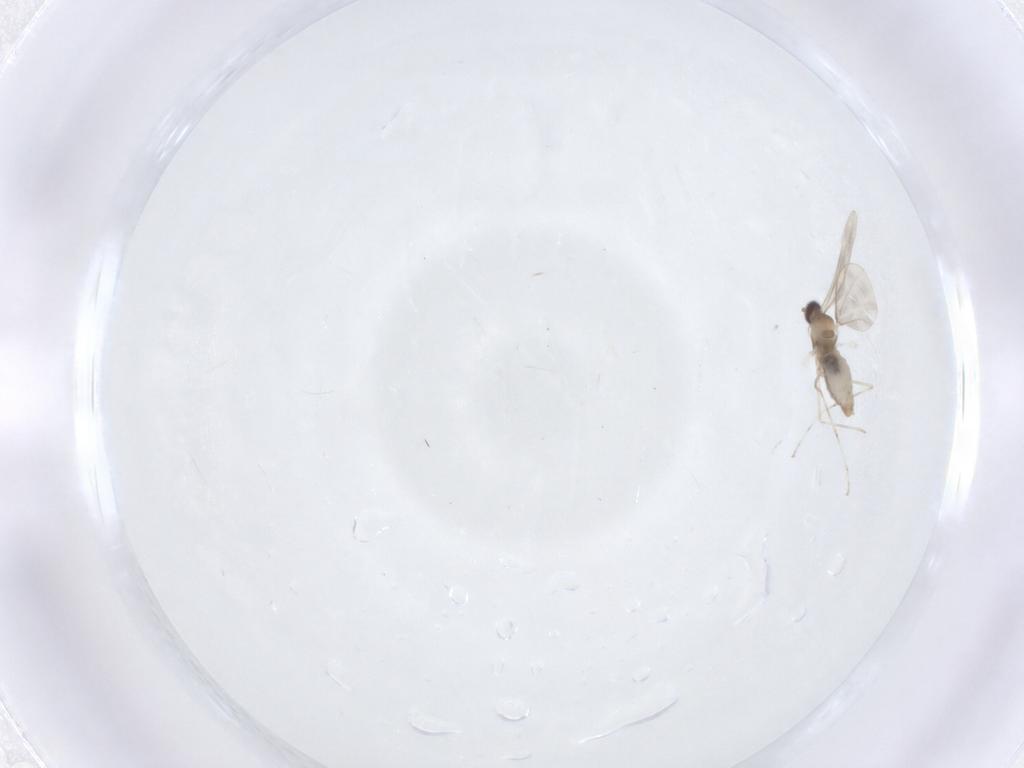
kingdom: Animalia
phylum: Arthropoda
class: Insecta
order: Diptera
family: Cecidomyiidae
